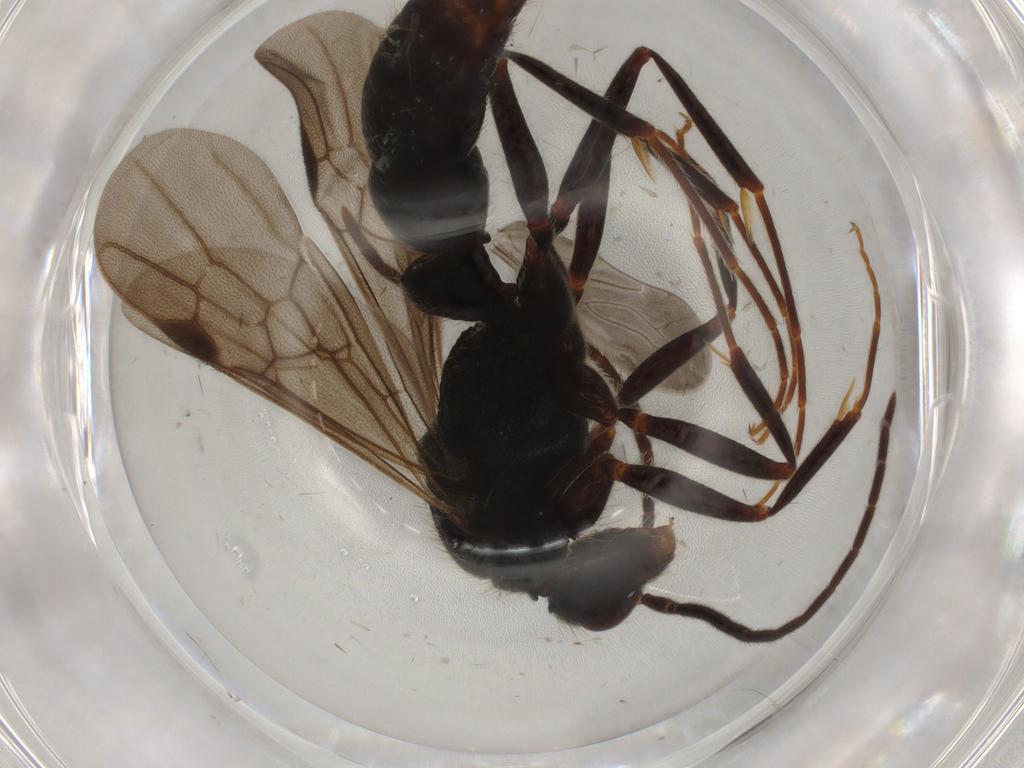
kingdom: Animalia
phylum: Arthropoda
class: Insecta
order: Hymenoptera
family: Formicidae
